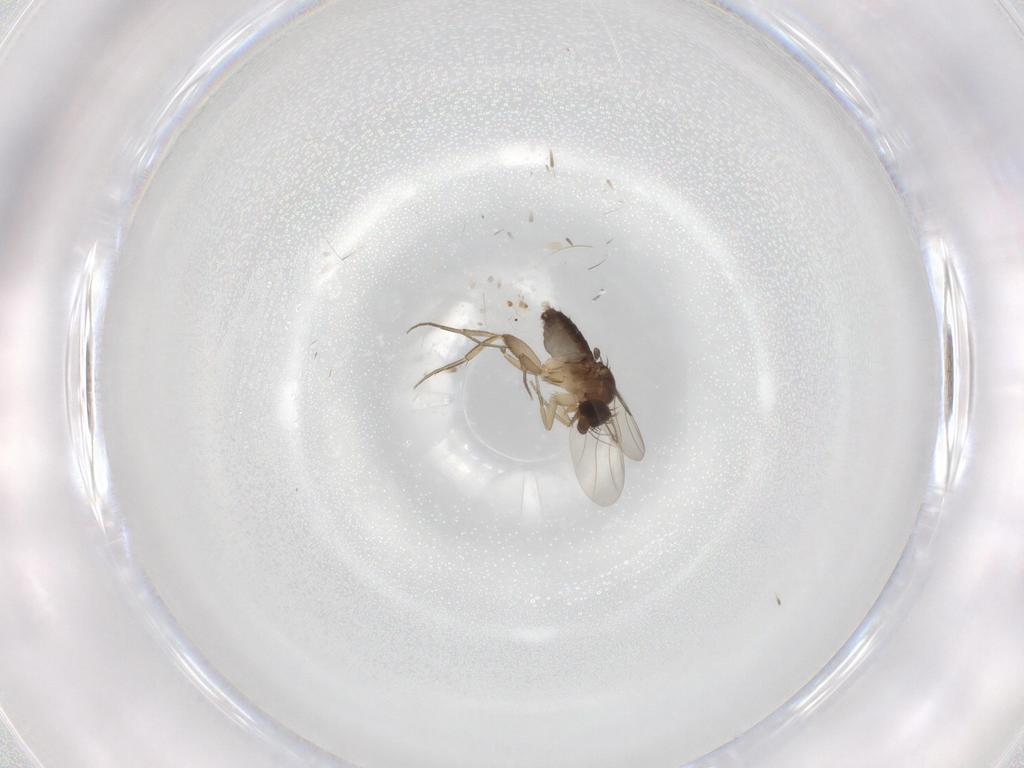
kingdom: Animalia
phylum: Arthropoda
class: Insecta
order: Diptera
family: Phoridae
